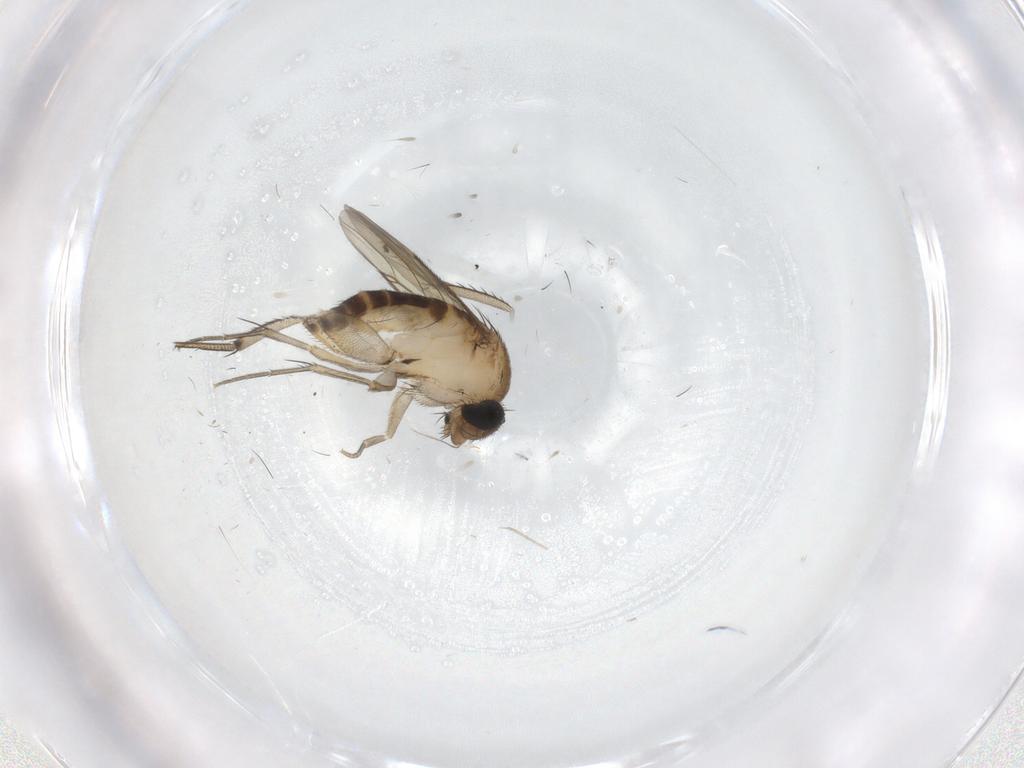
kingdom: Animalia
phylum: Arthropoda
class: Insecta
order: Diptera
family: Phoridae
